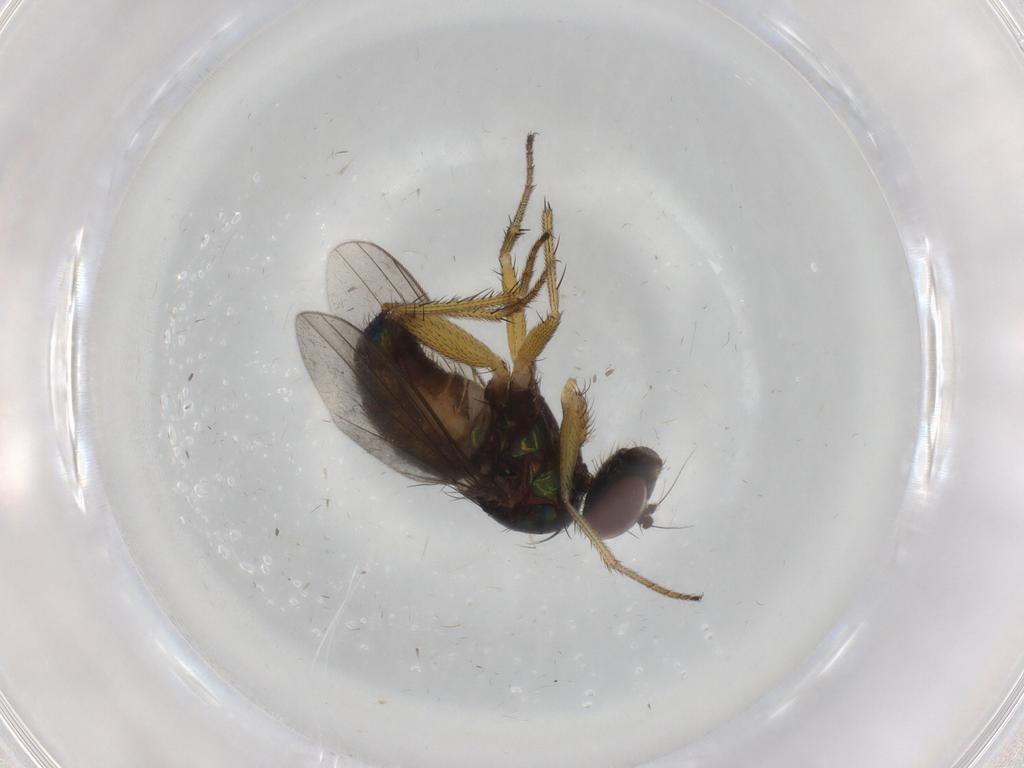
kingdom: Animalia
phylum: Arthropoda
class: Insecta
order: Diptera
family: Dolichopodidae
